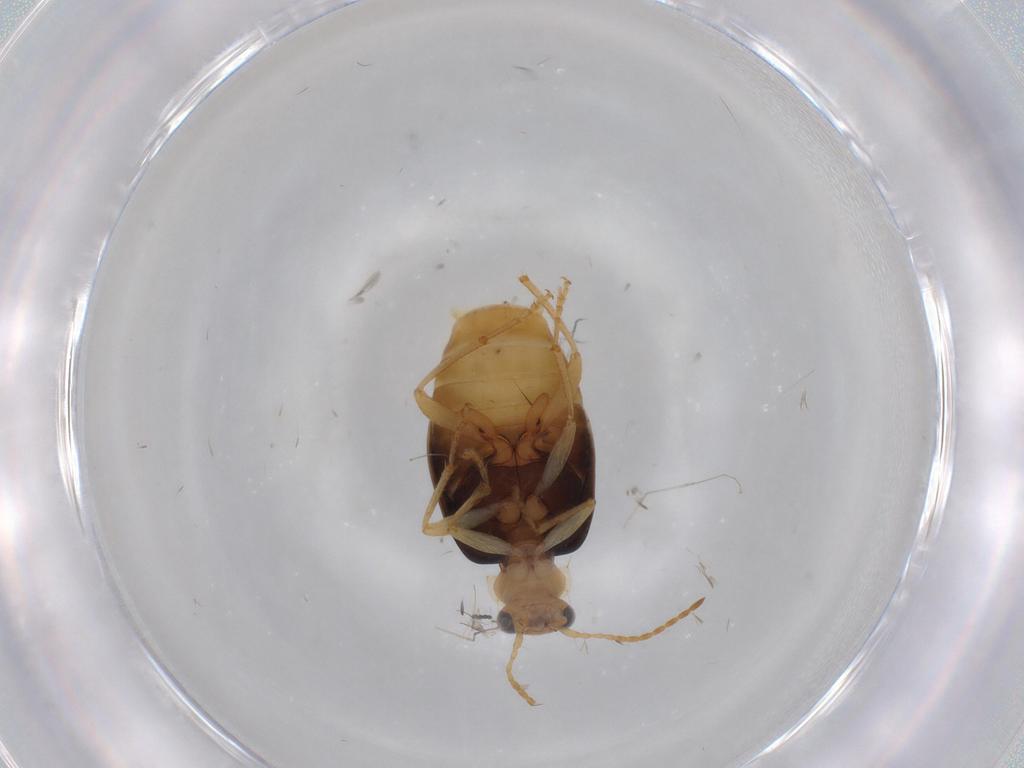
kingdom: Animalia
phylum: Arthropoda
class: Insecta
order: Coleoptera
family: Carabidae
